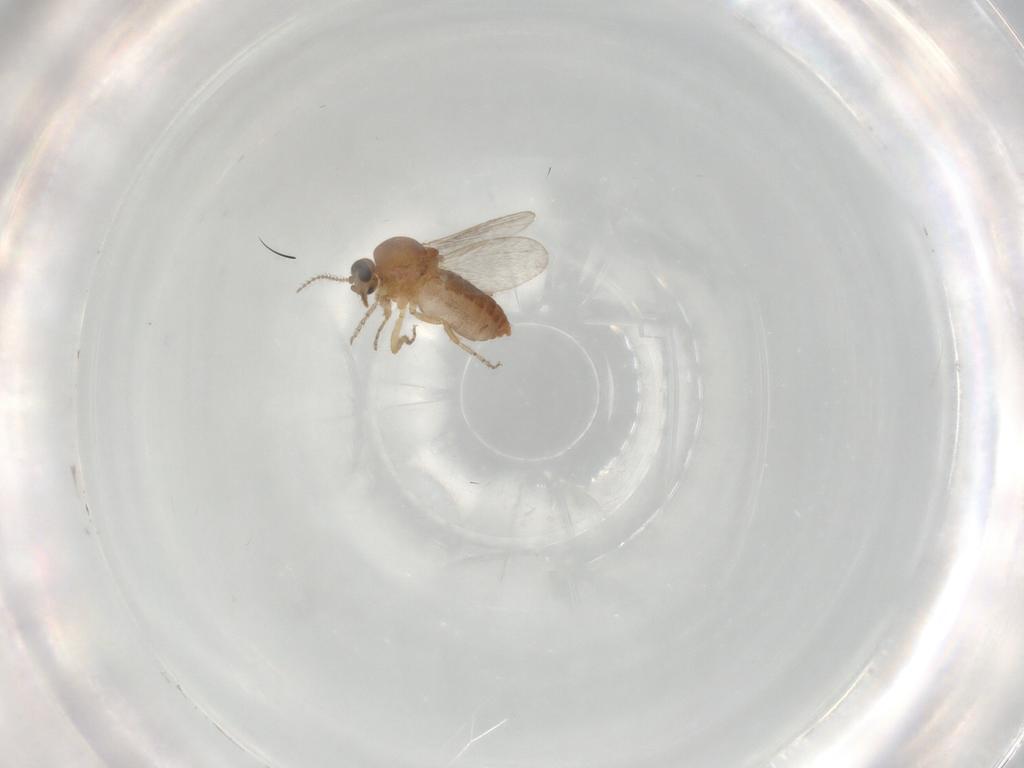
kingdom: Animalia
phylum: Arthropoda
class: Insecta
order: Diptera
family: Ceratopogonidae
